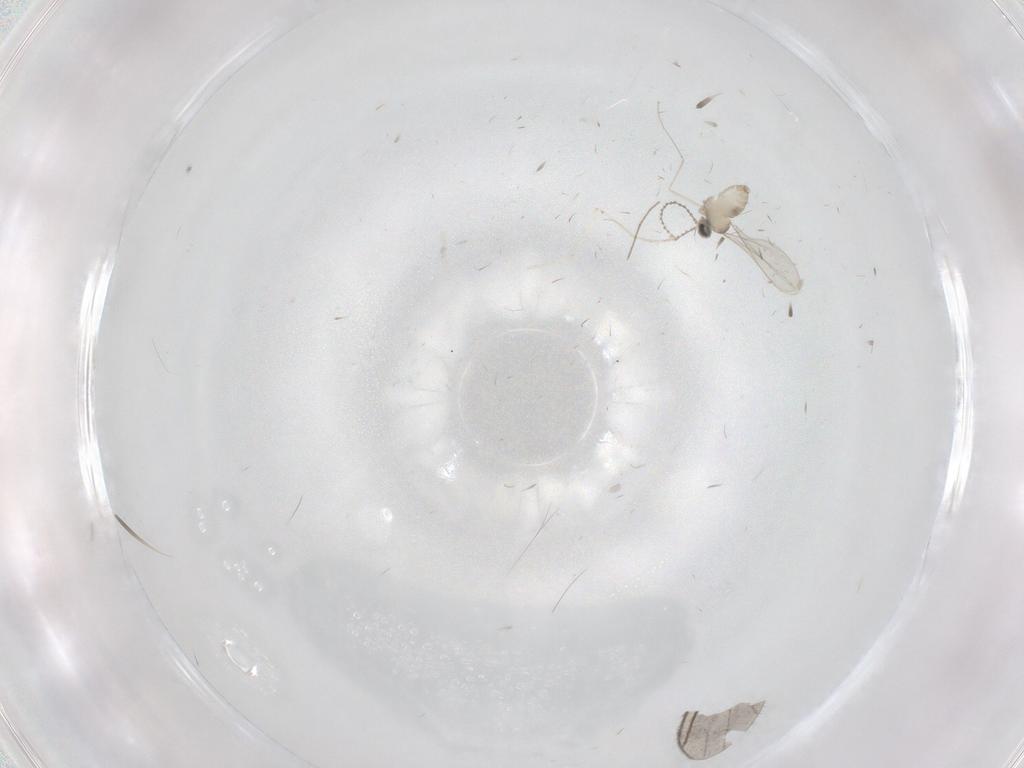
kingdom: Animalia
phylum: Arthropoda
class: Insecta
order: Diptera
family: Cecidomyiidae
